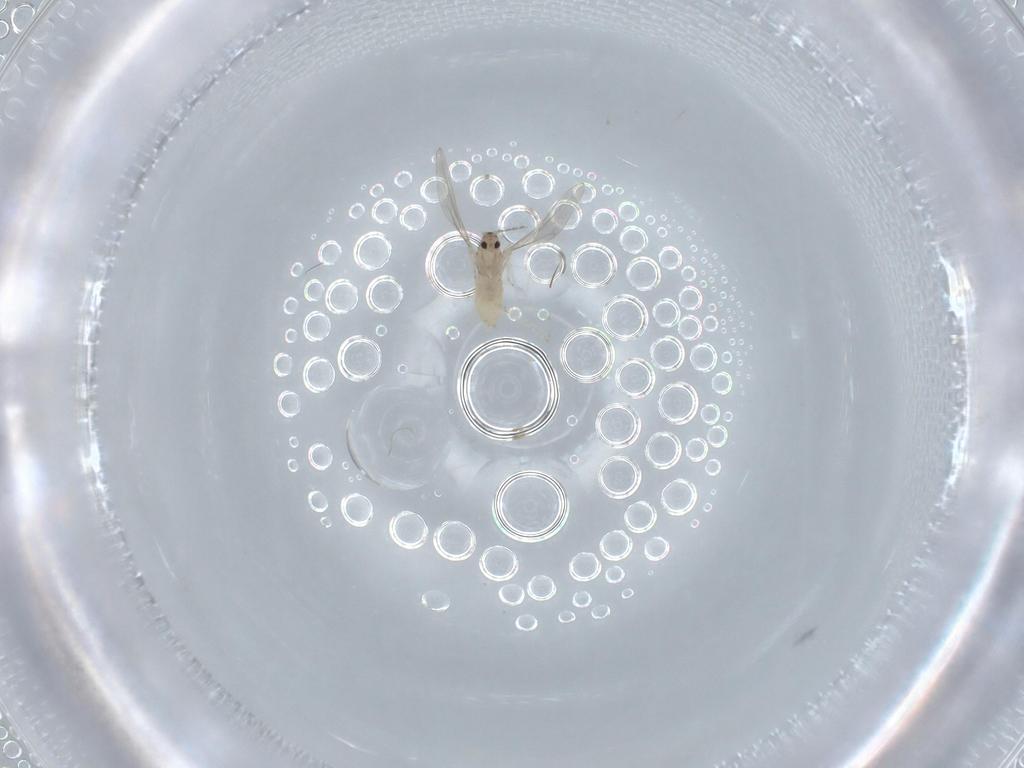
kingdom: Animalia
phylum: Arthropoda
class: Insecta
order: Diptera
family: Cecidomyiidae
